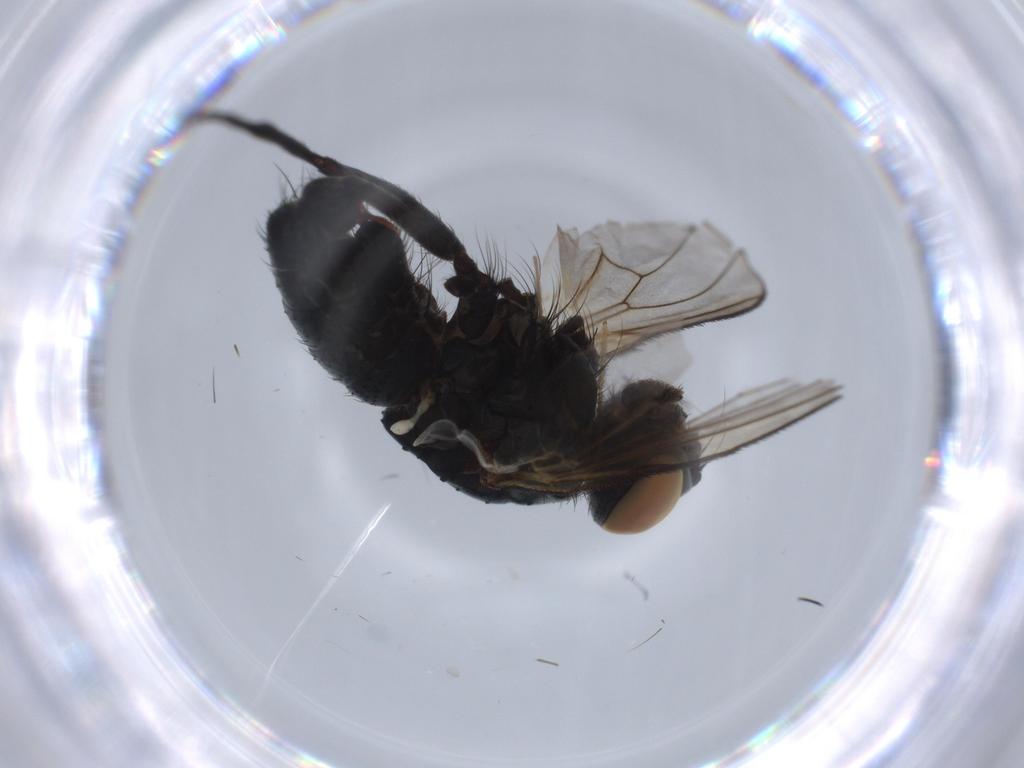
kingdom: Animalia
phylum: Arthropoda
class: Insecta
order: Diptera
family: Muscidae
